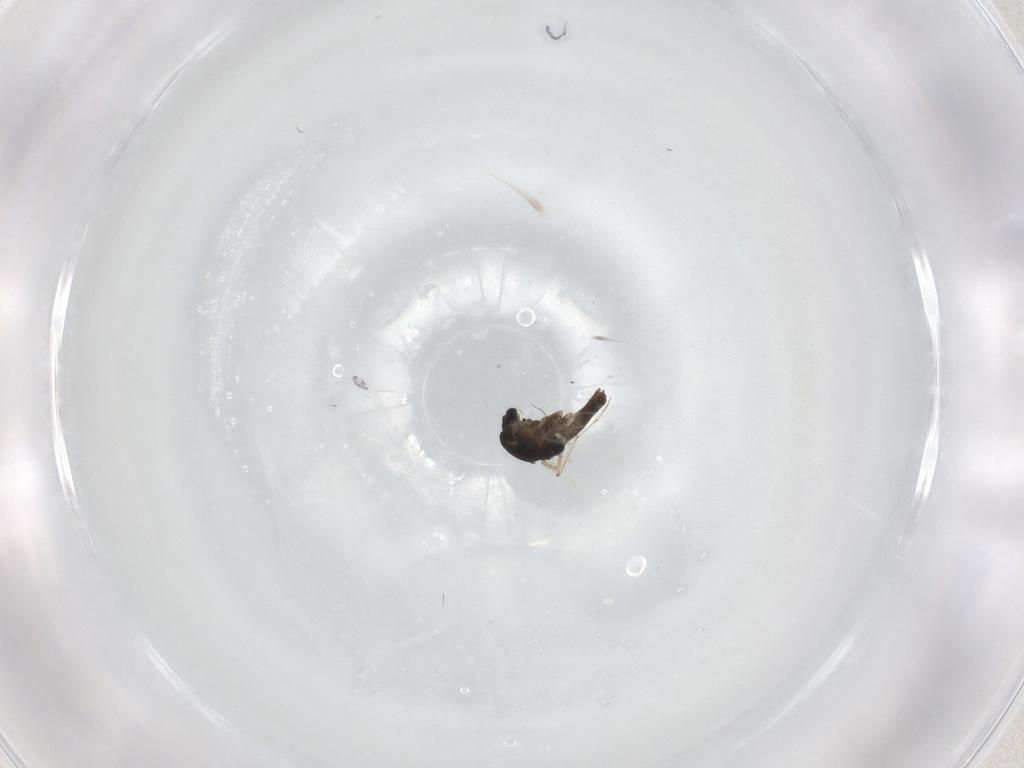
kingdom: Animalia
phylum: Arthropoda
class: Insecta
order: Diptera
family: Chironomidae
